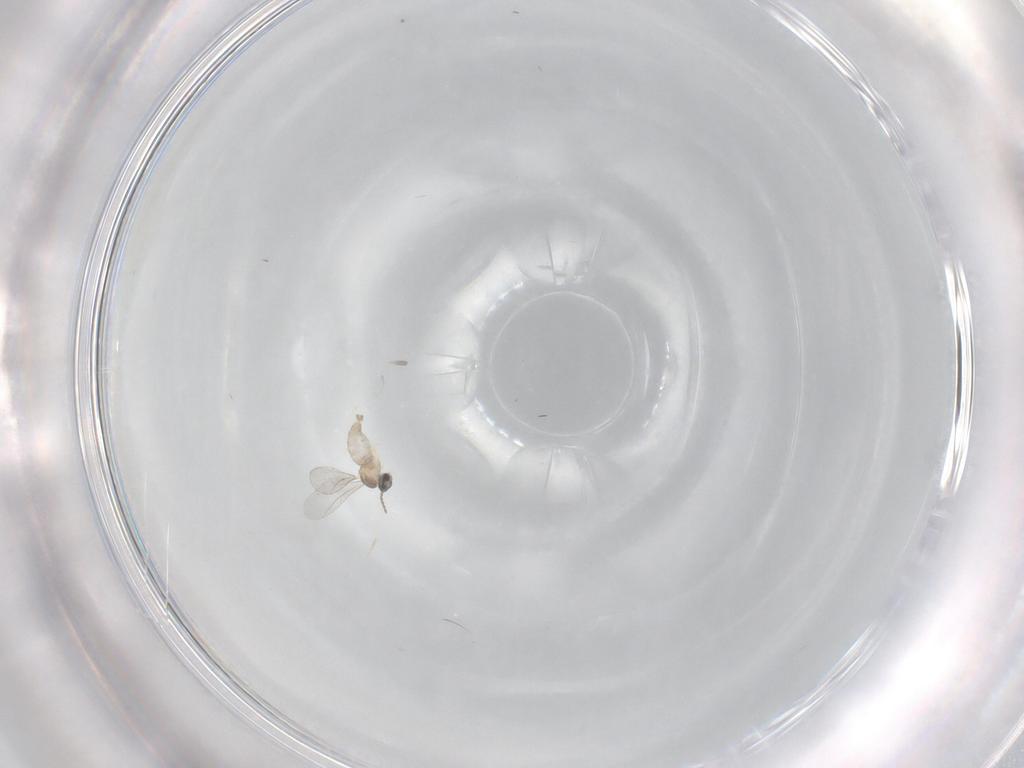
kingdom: Animalia
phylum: Arthropoda
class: Insecta
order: Diptera
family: Cecidomyiidae
